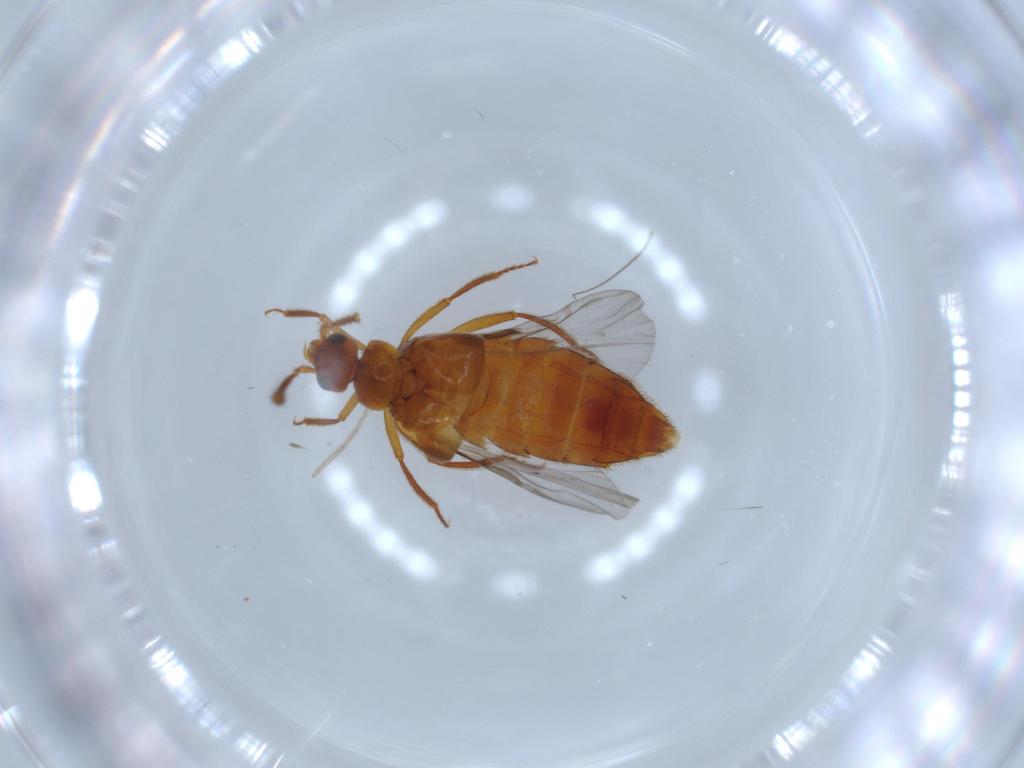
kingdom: Animalia
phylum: Arthropoda
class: Insecta
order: Coleoptera
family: Staphylinidae
